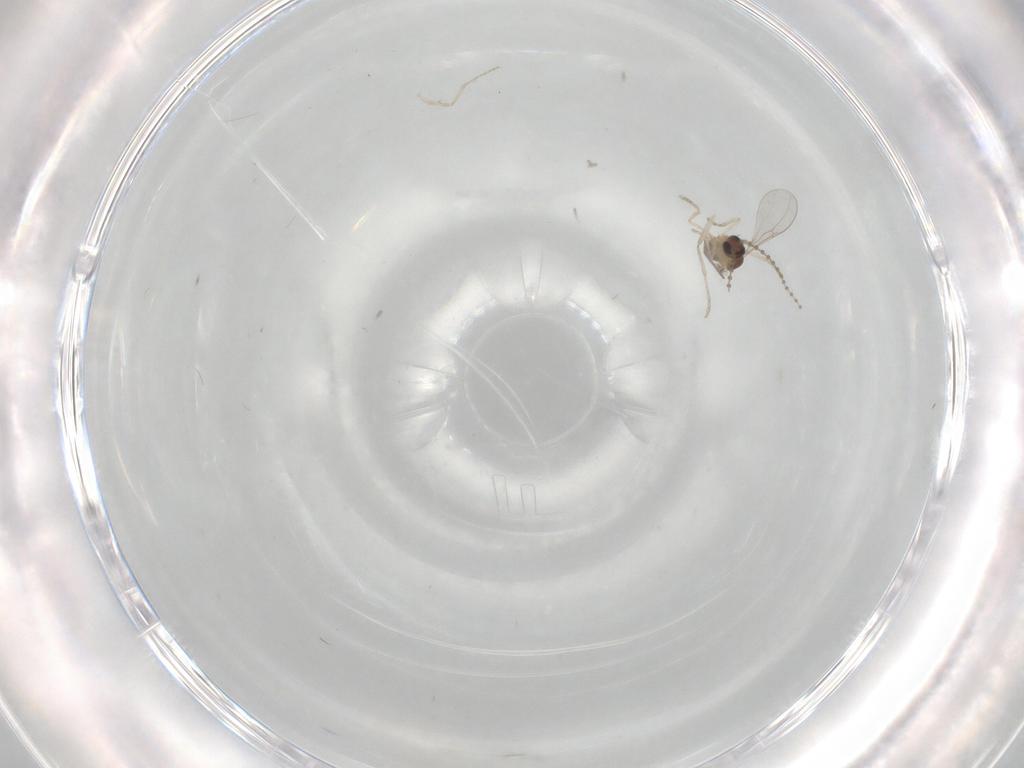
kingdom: Animalia
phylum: Arthropoda
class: Insecta
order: Diptera
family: Cecidomyiidae
